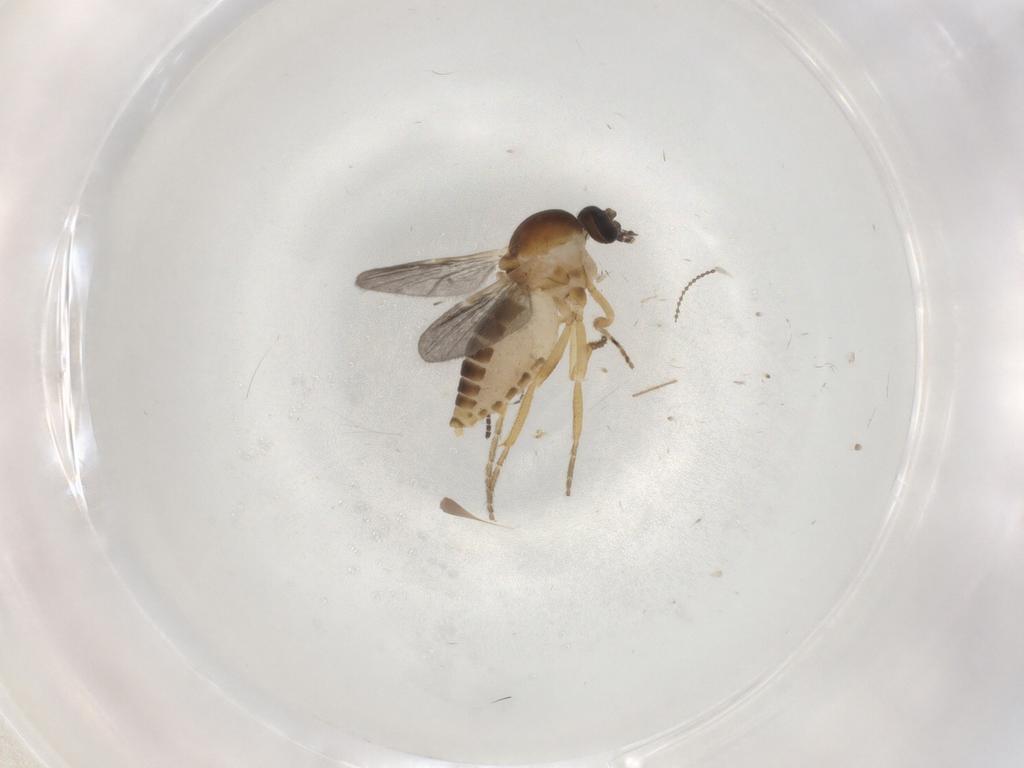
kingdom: Animalia
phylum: Arthropoda
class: Insecta
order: Diptera
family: Ceratopogonidae
